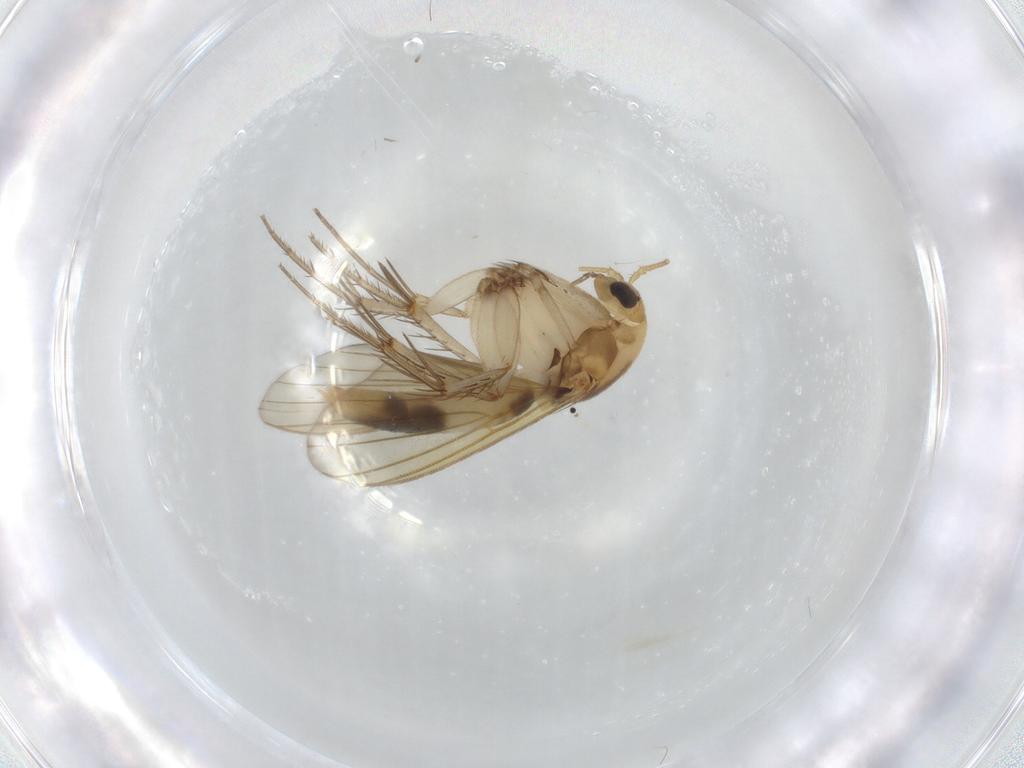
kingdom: Animalia
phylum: Arthropoda
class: Insecta
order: Diptera
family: Mycetophilidae
